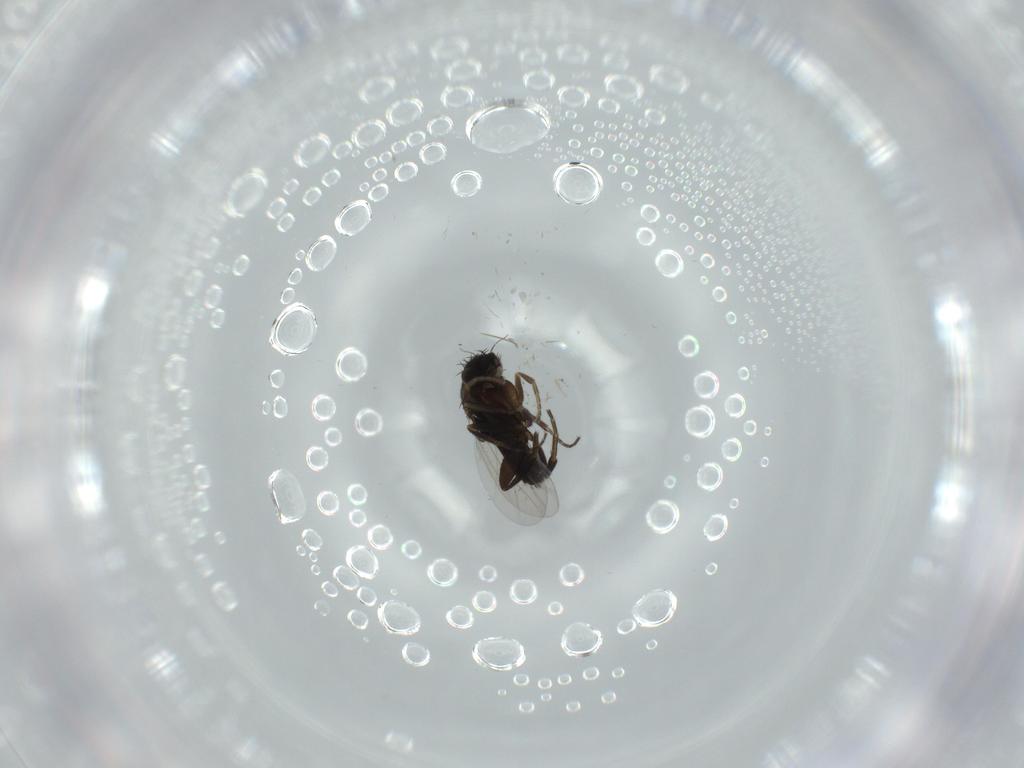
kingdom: Animalia
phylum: Arthropoda
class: Insecta
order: Diptera
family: Phoridae
